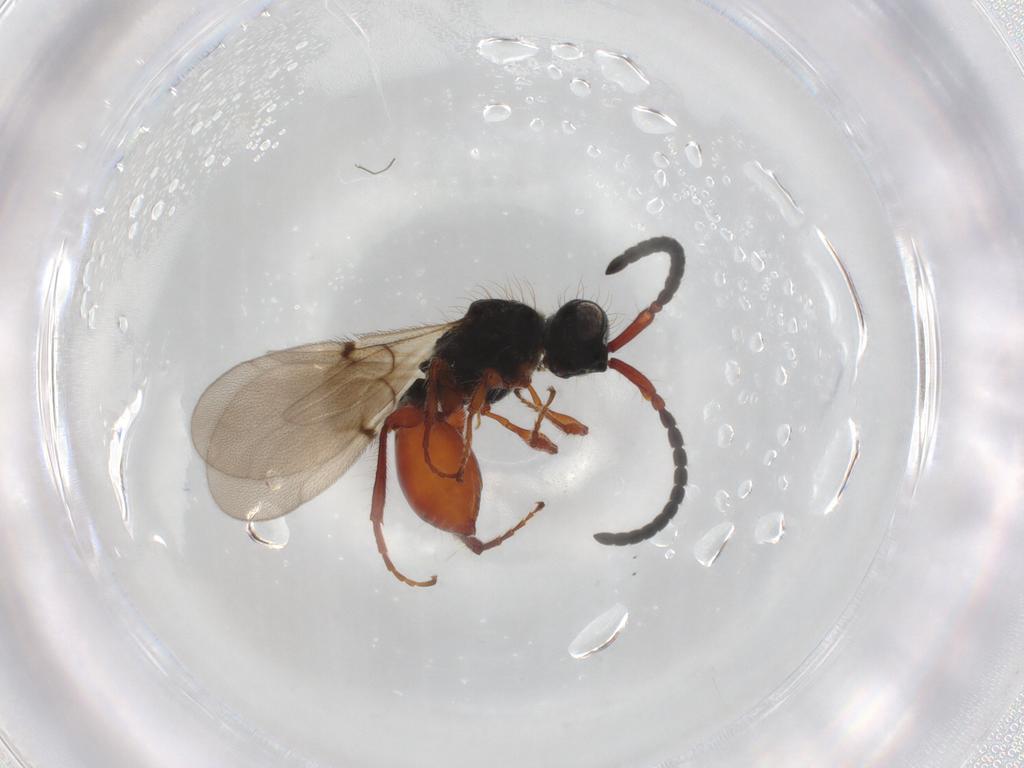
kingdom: Animalia
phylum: Arthropoda
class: Insecta
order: Hymenoptera
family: Diapriidae
